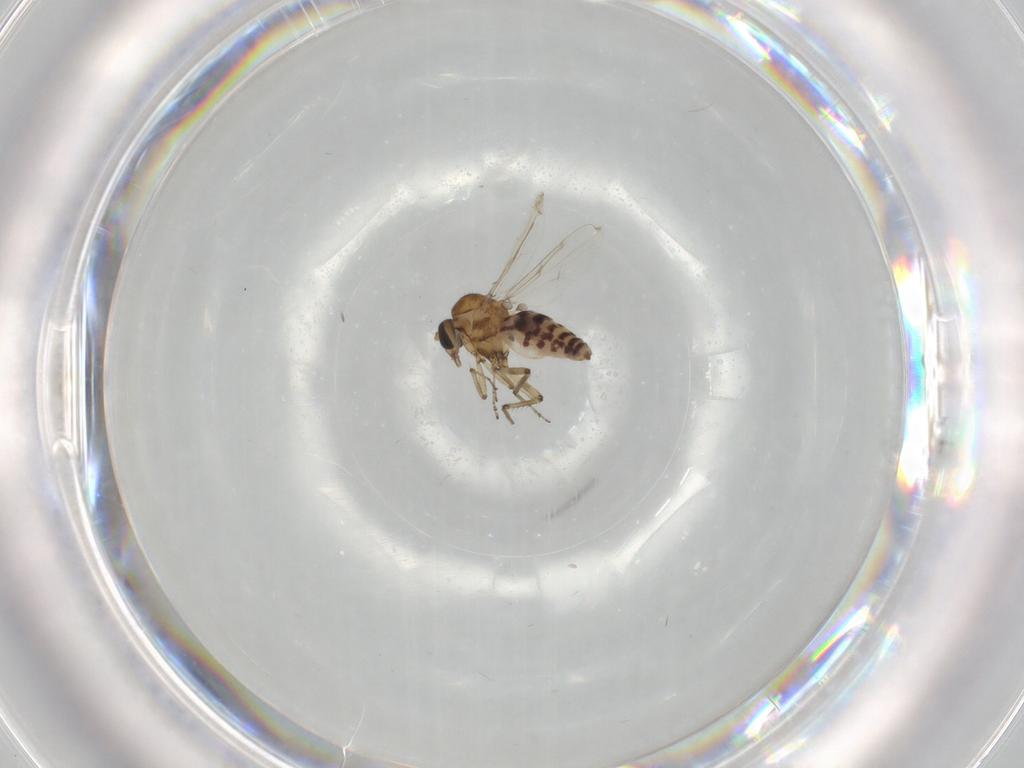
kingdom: Animalia
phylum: Arthropoda
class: Insecta
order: Diptera
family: Ceratopogonidae
